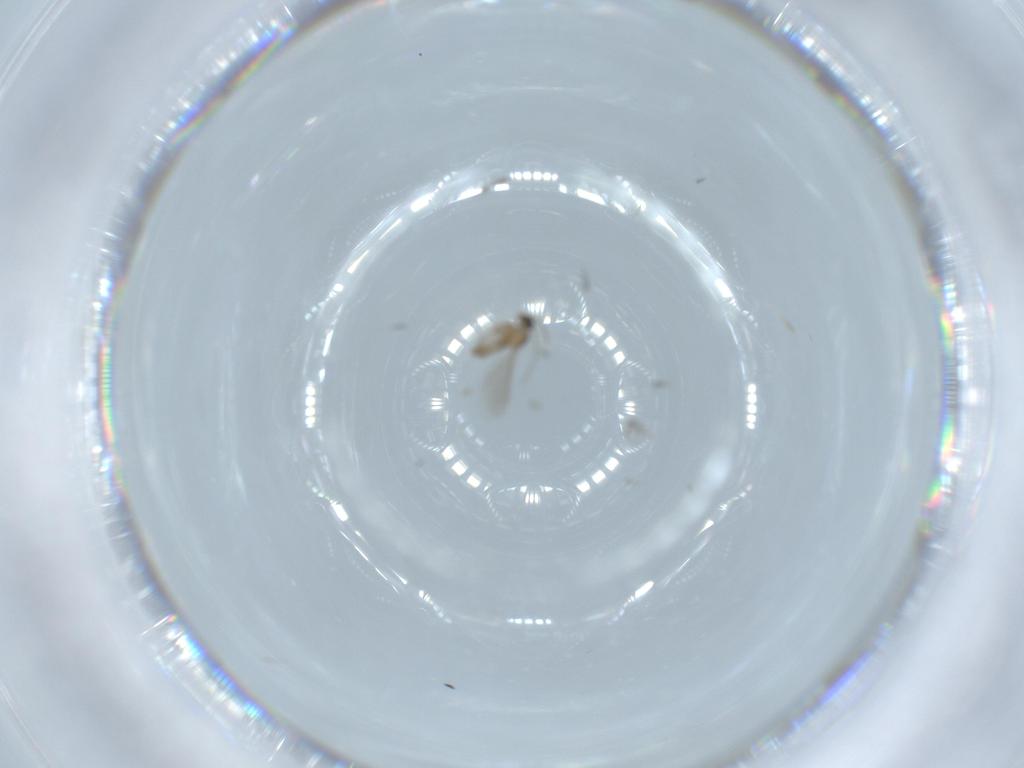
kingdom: Animalia
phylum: Arthropoda
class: Insecta
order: Diptera
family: Cecidomyiidae
